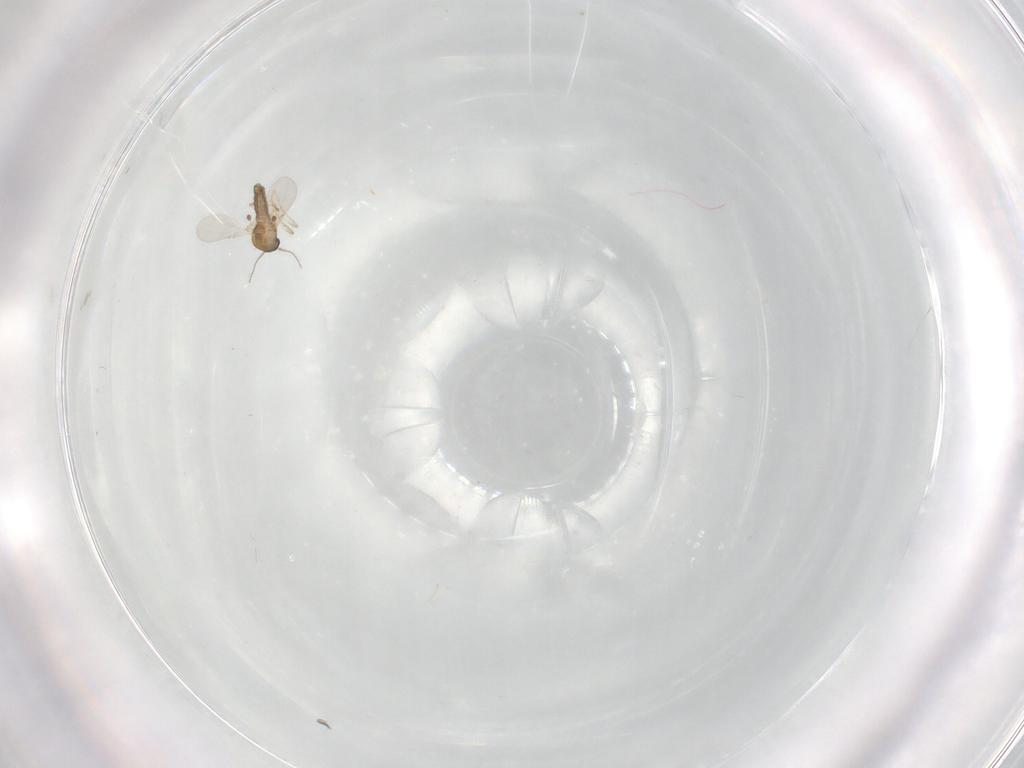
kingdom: Animalia
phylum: Arthropoda
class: Insecta
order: Diptera
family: Ceratopogonidae
